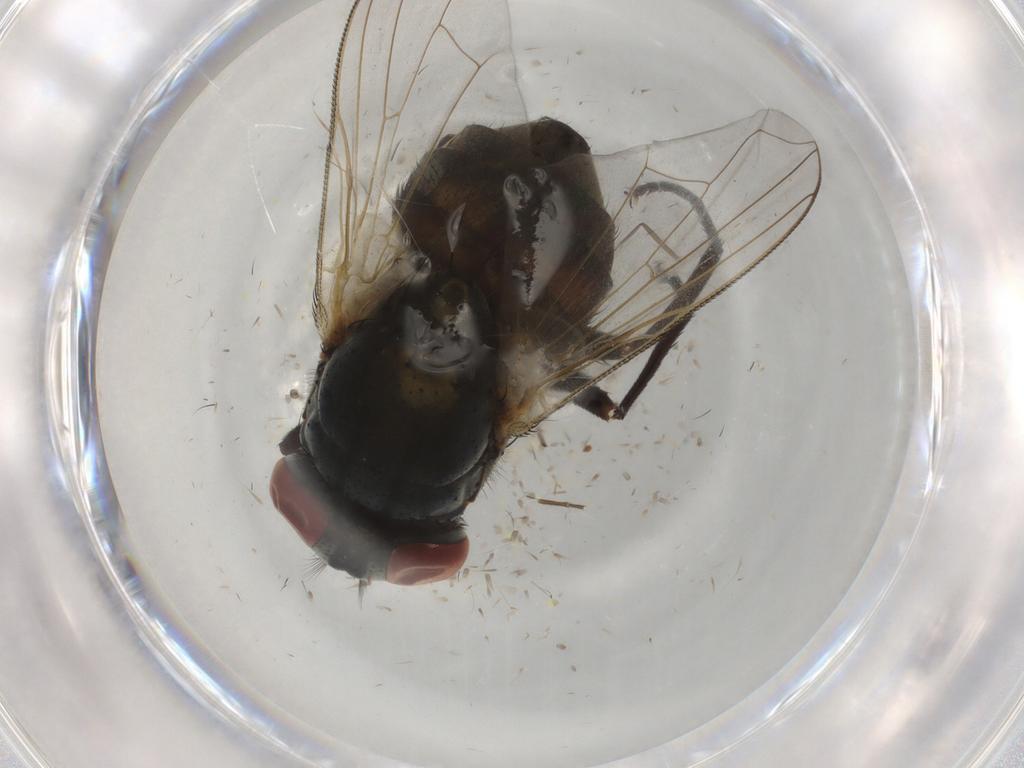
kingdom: Animalia
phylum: Arthropoda
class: Insecta
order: Diptera
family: Muscidae
